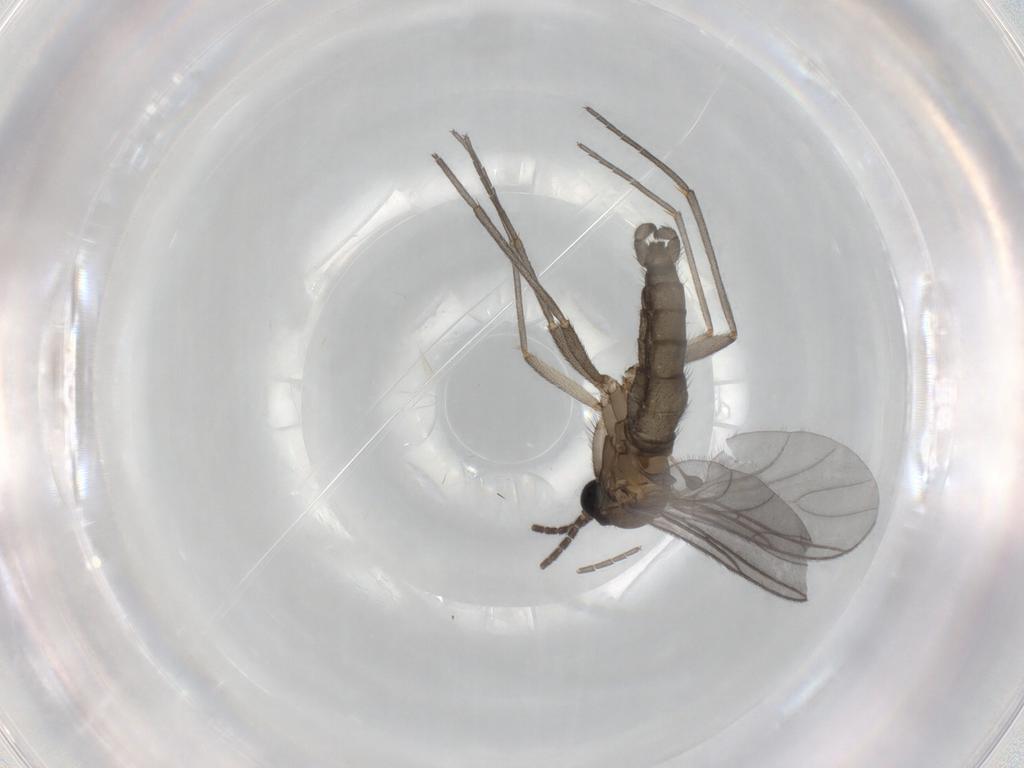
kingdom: Animalia
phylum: Arthropoda
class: Insecta
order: Diptera
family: Sciaridae
